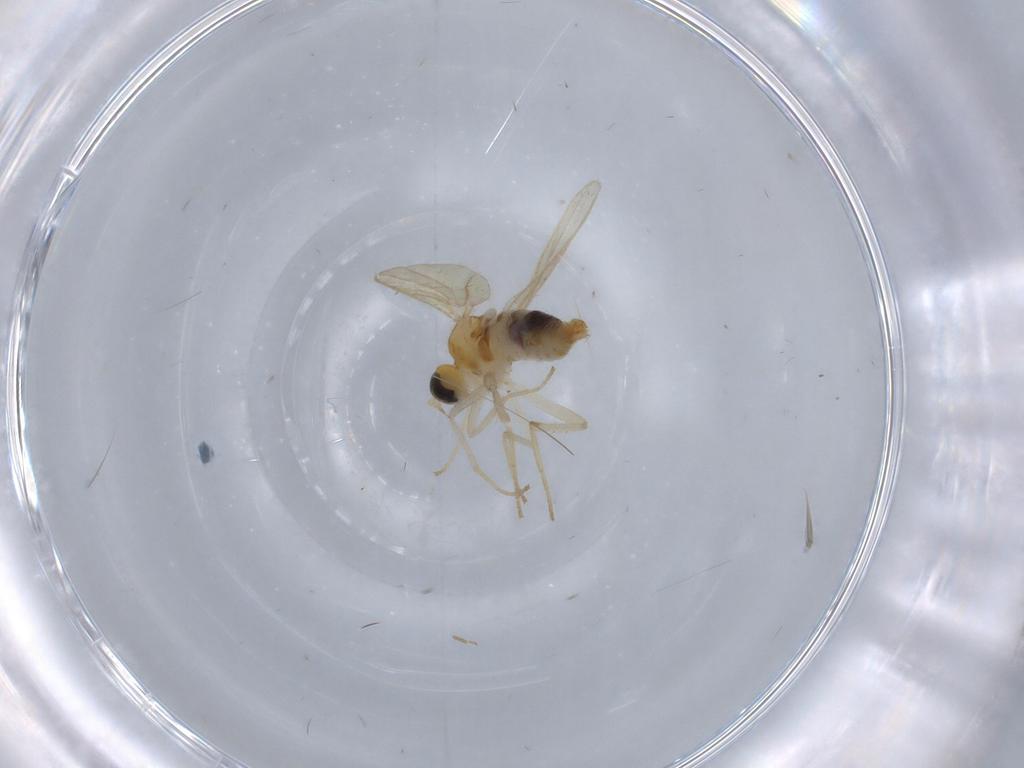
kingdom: Animalia
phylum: Arthropoda
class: Insecta
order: Diptera
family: Hybotidae
